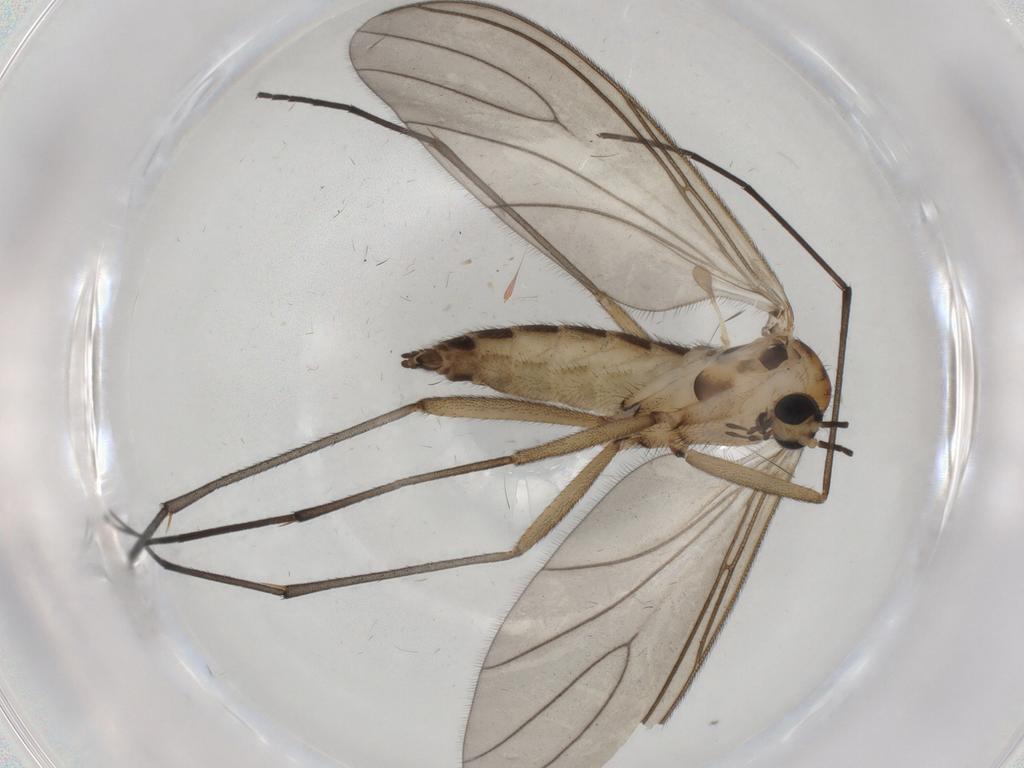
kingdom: Animalia
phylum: Arthropoda
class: Insecta
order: Diptera
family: Sciaridae
